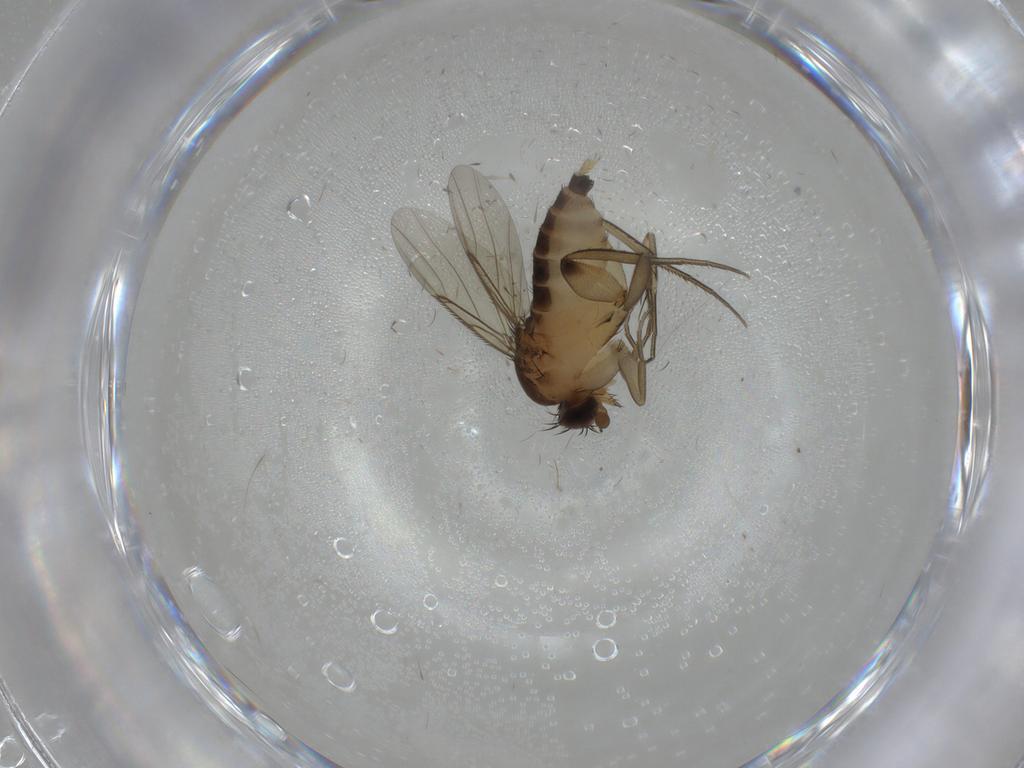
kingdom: Animalia
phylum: Arthropoda
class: Insecta
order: Diptera
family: Phoridae
